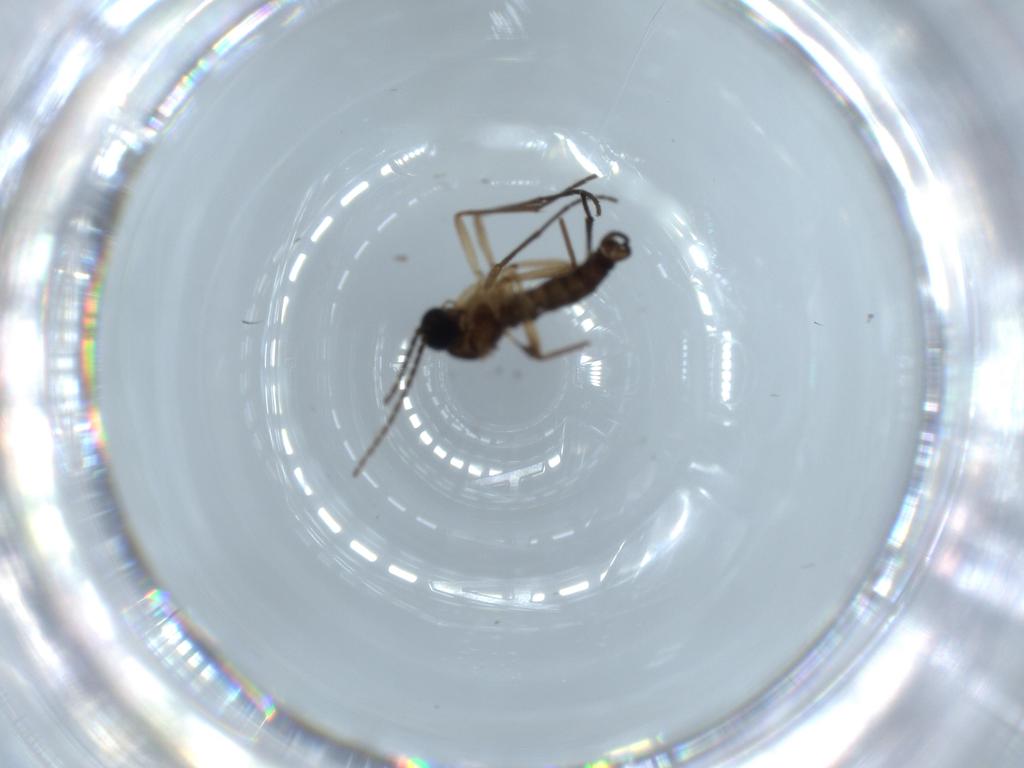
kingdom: Animalia
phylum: Arthropoda
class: Insecta
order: Diptera
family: Sciaridae
